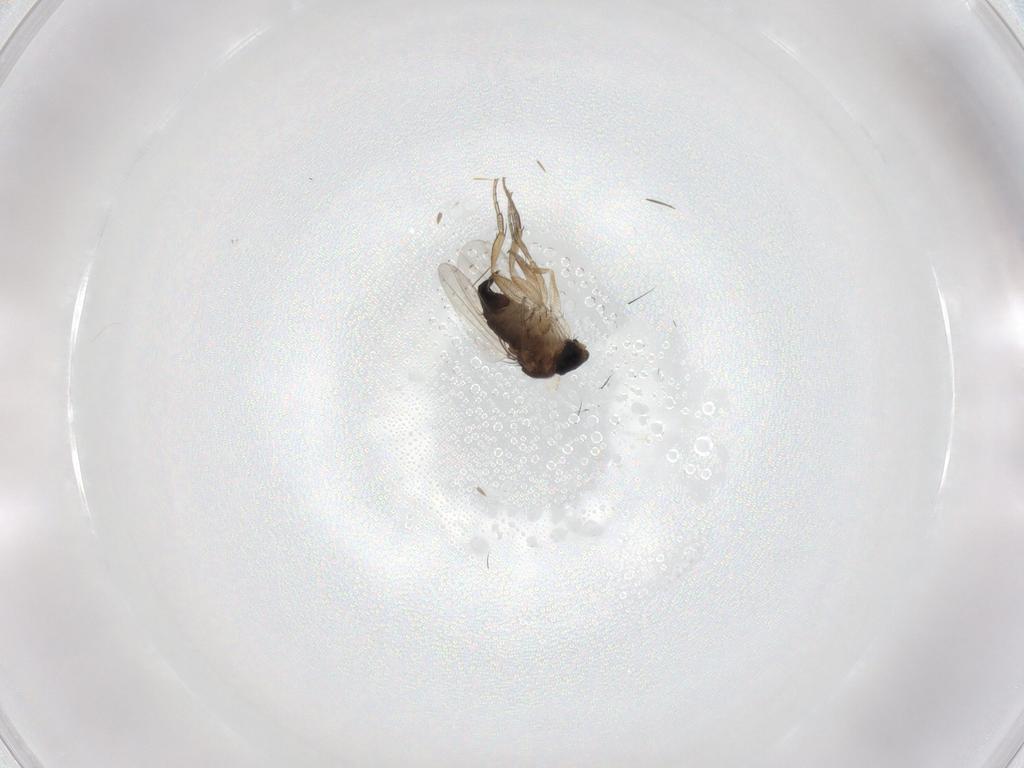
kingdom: Animalia
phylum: Arthropoda
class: Insecta
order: Diptera
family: Phoridae
